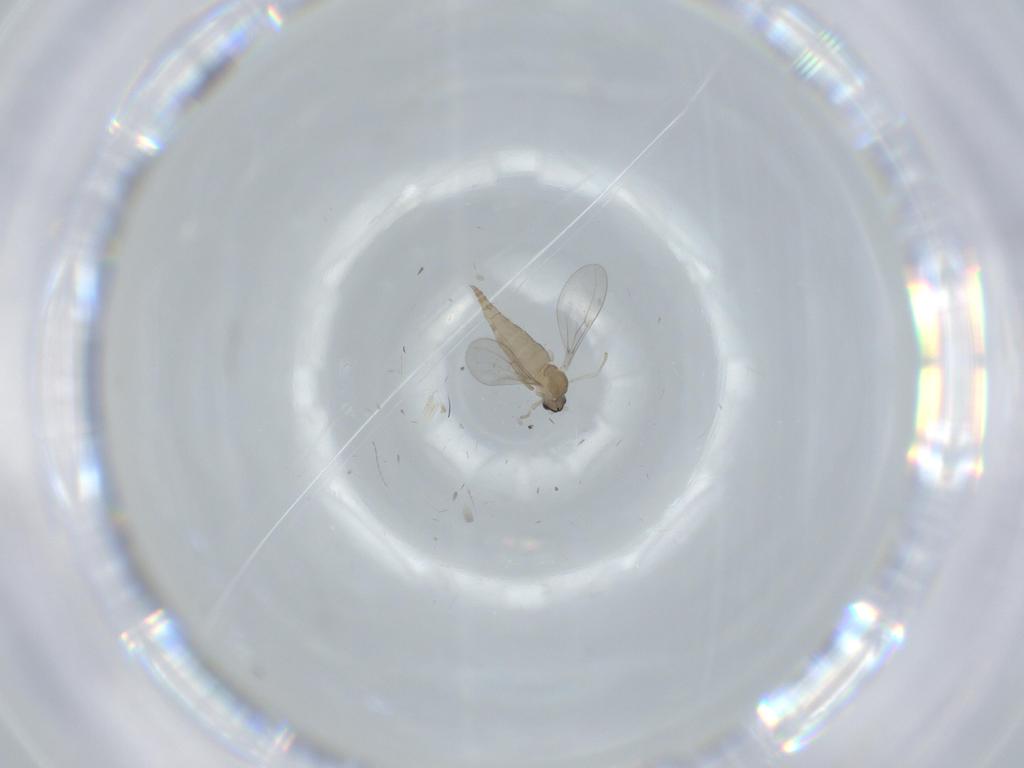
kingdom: Animalia
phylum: Arthropoda
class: Insecta
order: Diptera
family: Cecidomyiidae
